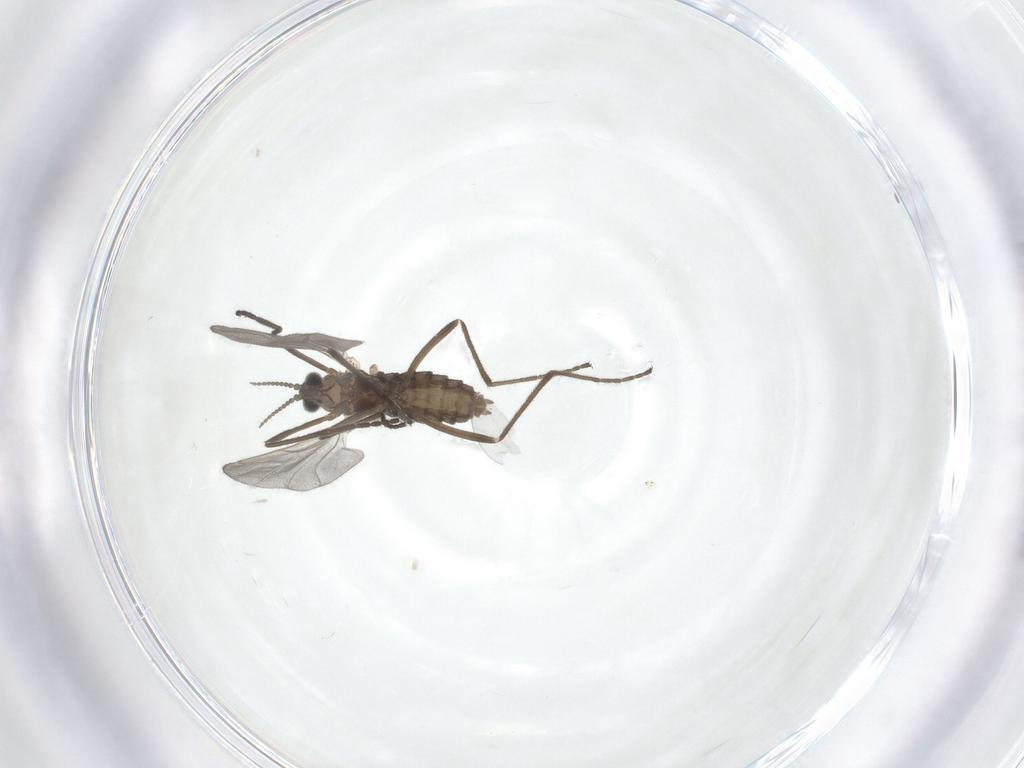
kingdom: Animalia
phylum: Arthropoda
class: Insecta
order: Diptera
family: Cecidomyiidae
